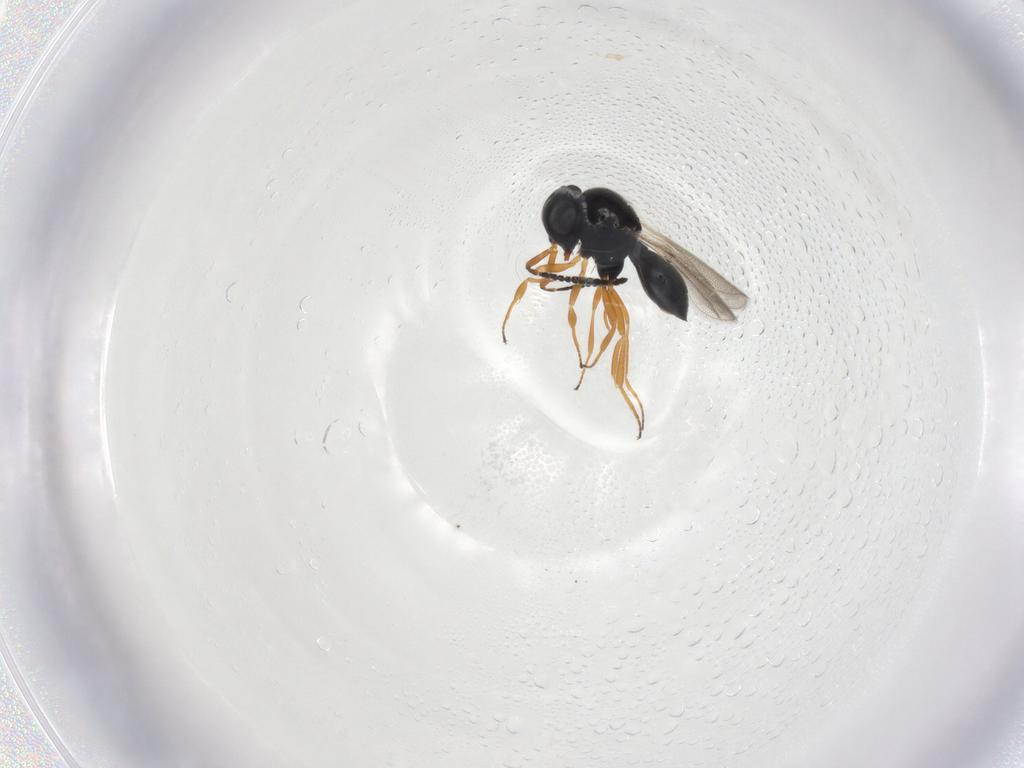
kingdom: Animalia
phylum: Arthropoda
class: Insecta
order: Hymenoptera
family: Scelionidae
